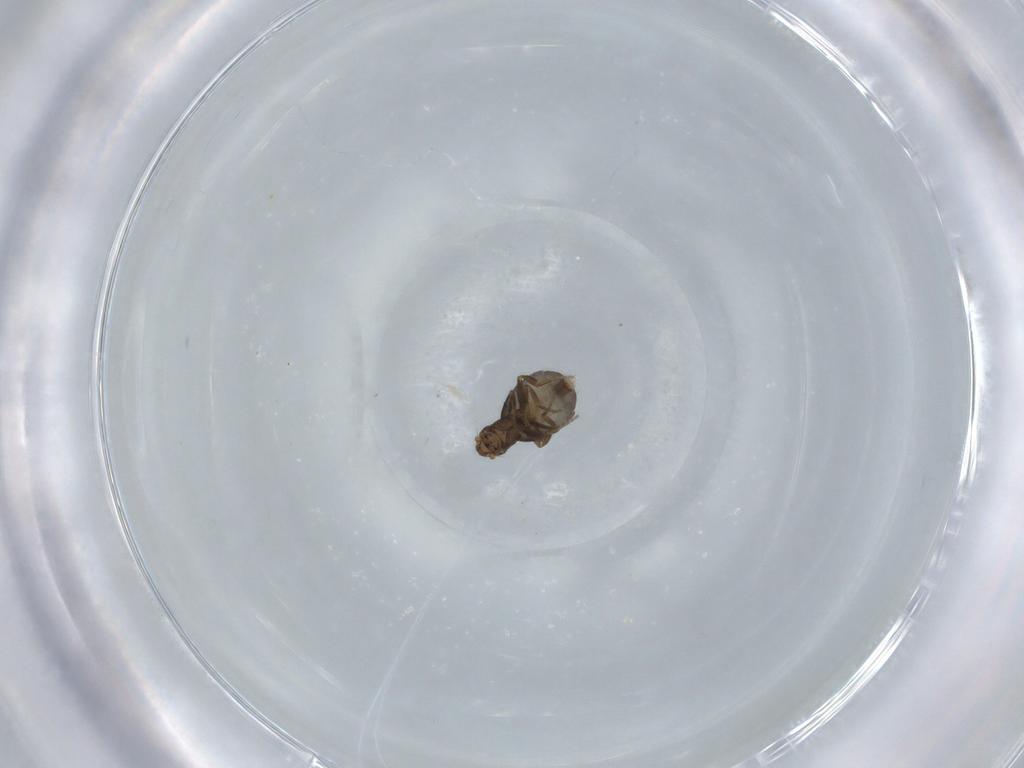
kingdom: Animalia
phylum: Arthropoda
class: Insecta
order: Diptera
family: Phoridae
